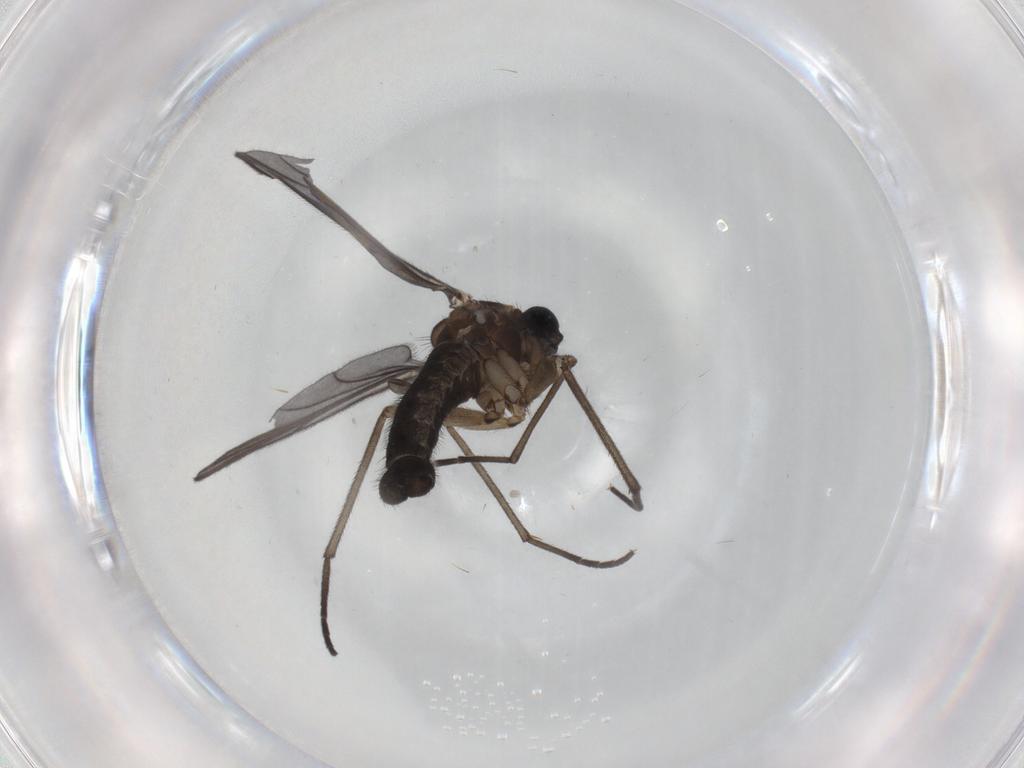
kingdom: Animalia
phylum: Arthropoda
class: Insecta
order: Diptera
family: Sciaridae
